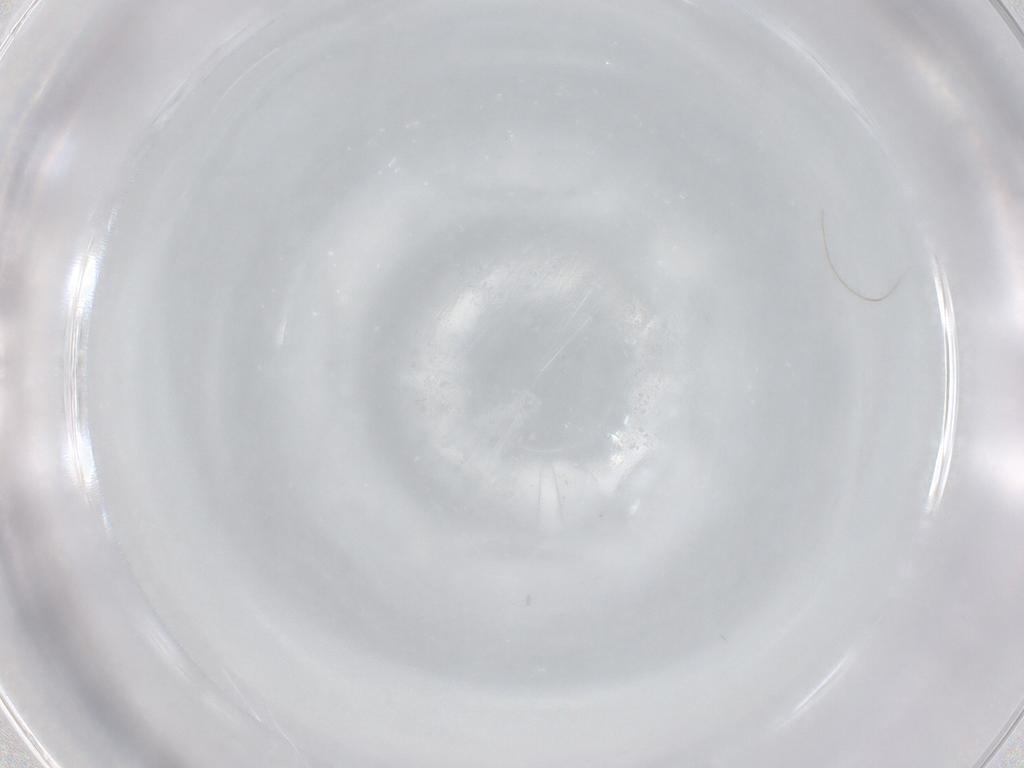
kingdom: Animalia
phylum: Arthropoda
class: Collembola
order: Entomobryomorpha
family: Entomobryidae
